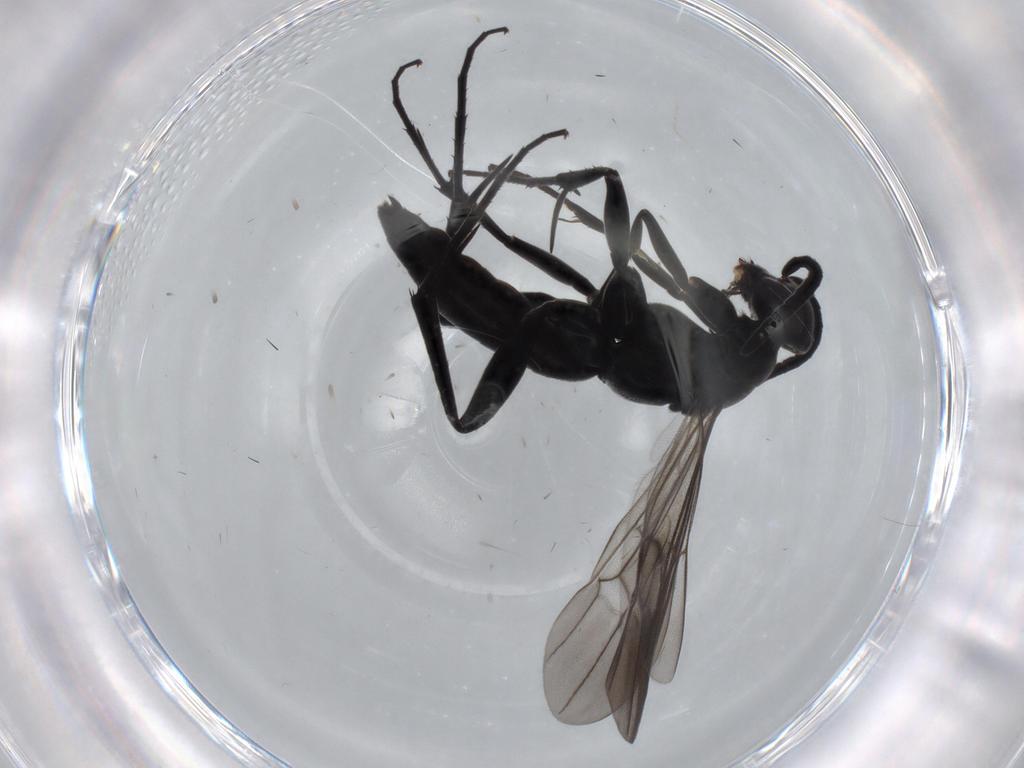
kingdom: Animalia
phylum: Arthropoda
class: Insecta
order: Hymenoptera
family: Pompilidae
